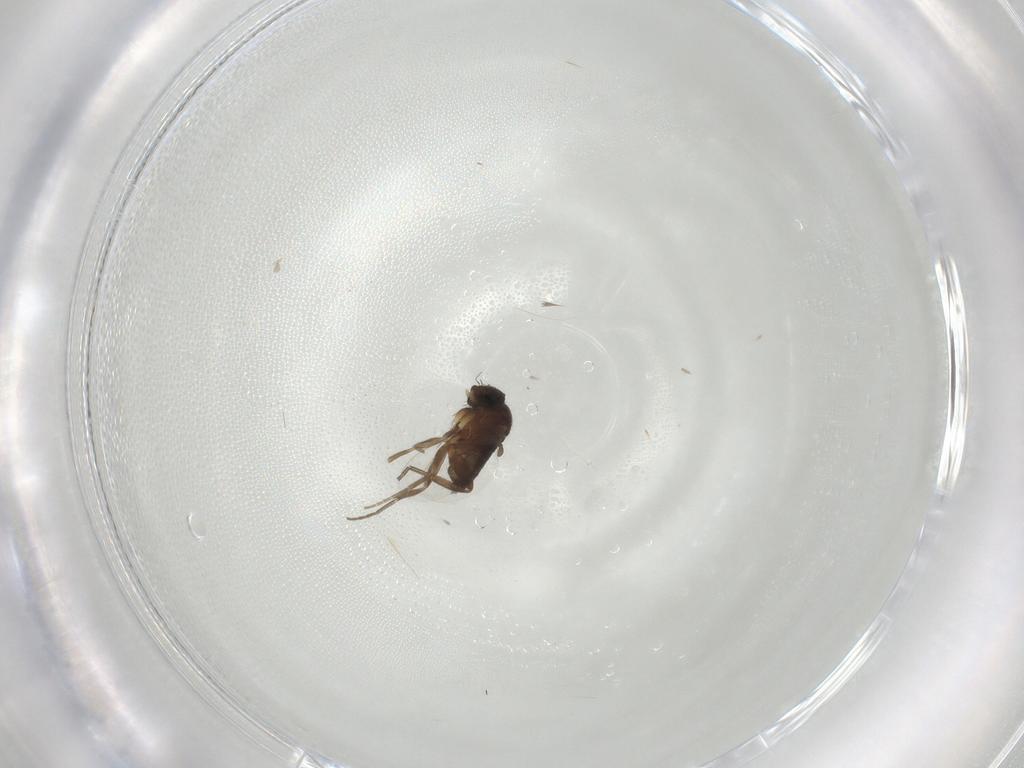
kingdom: Animalia
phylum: Arthropoda
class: Insecta
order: Diptera
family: Phoridae
